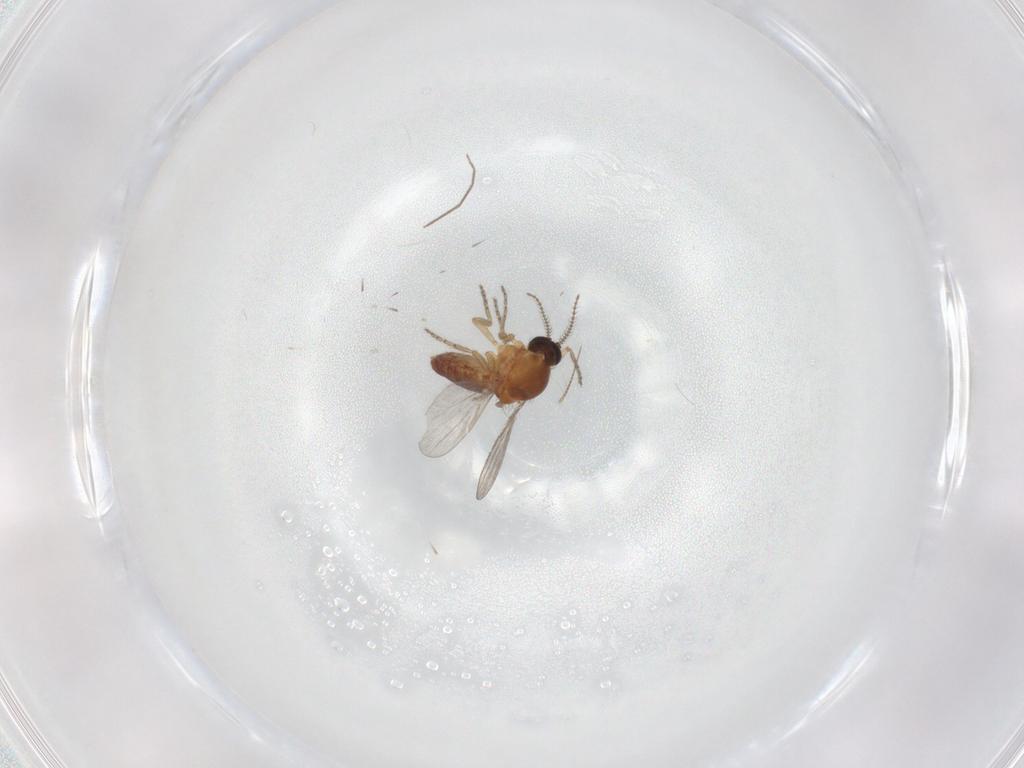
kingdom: Animalia
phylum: Arthropoda
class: Insecta
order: Diptera
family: Ceratopogonidae
